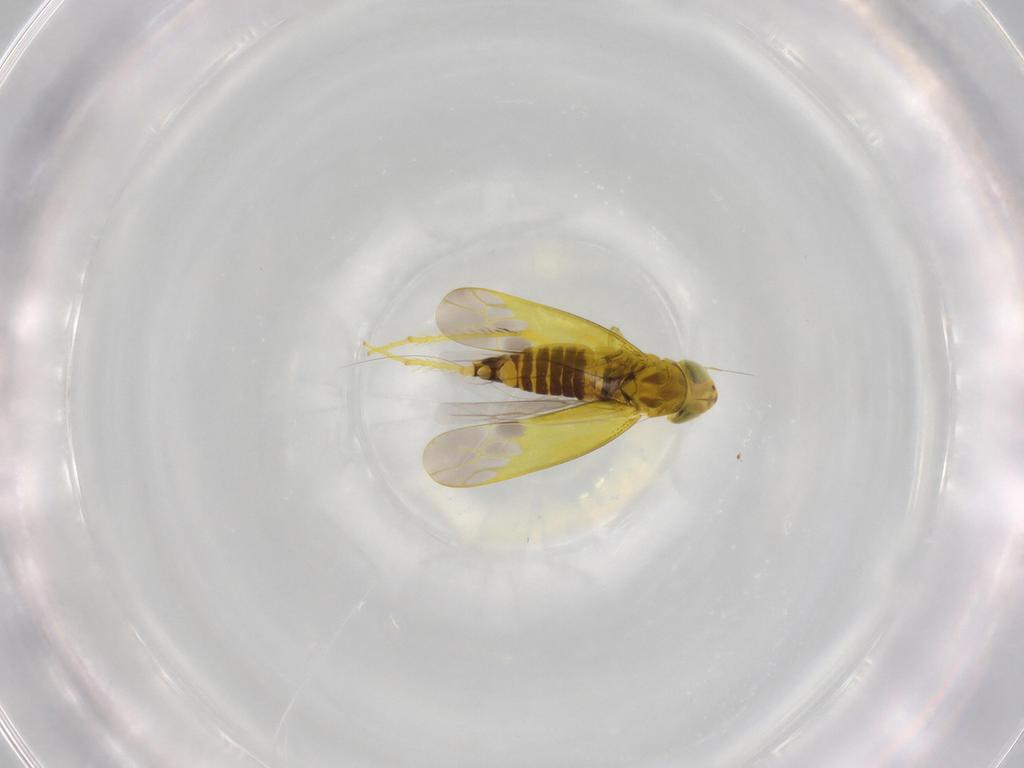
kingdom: Animalia
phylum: Arthropoda
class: Insecta
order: Hemiptera
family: Cicadellidae
